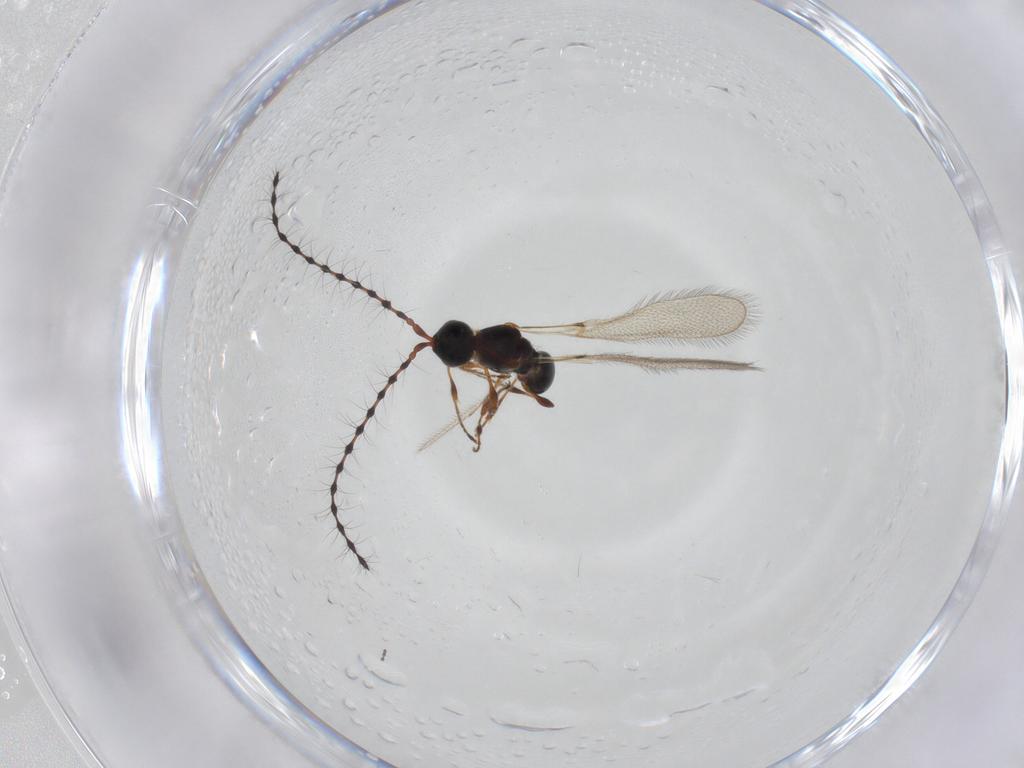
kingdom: Animalia
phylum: Arthropoda
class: Insecta
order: Hymenoptera
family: Diapriidae
